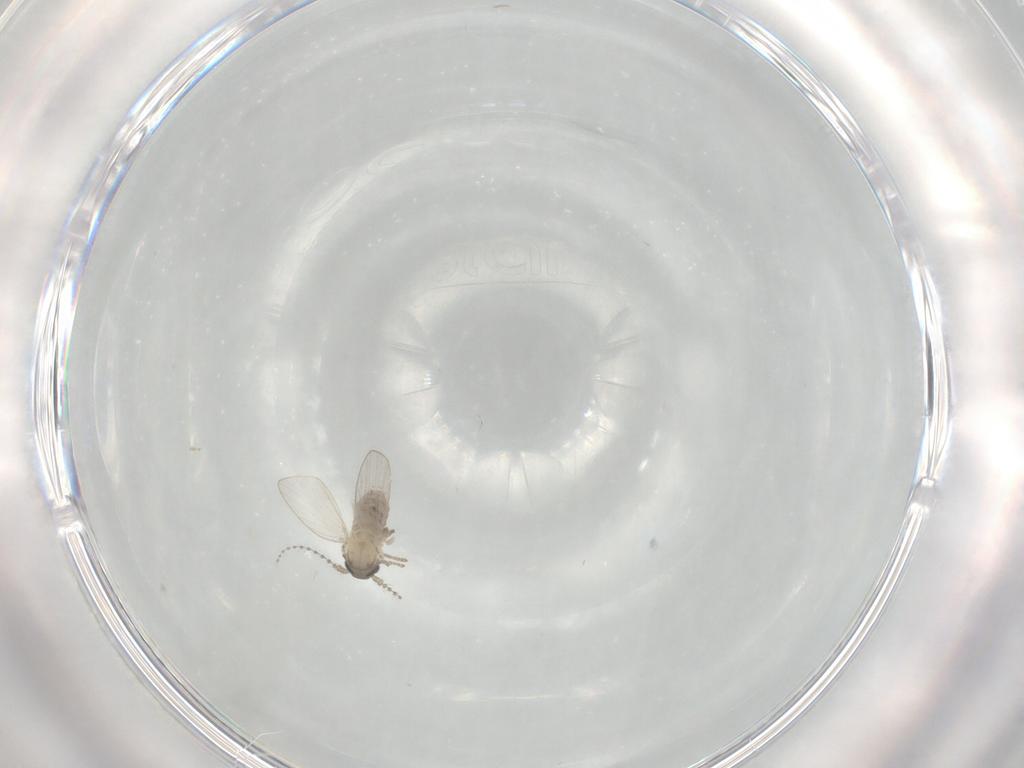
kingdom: Animalia
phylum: Arthropoda
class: Insecta
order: Diptera
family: Psychodidae
